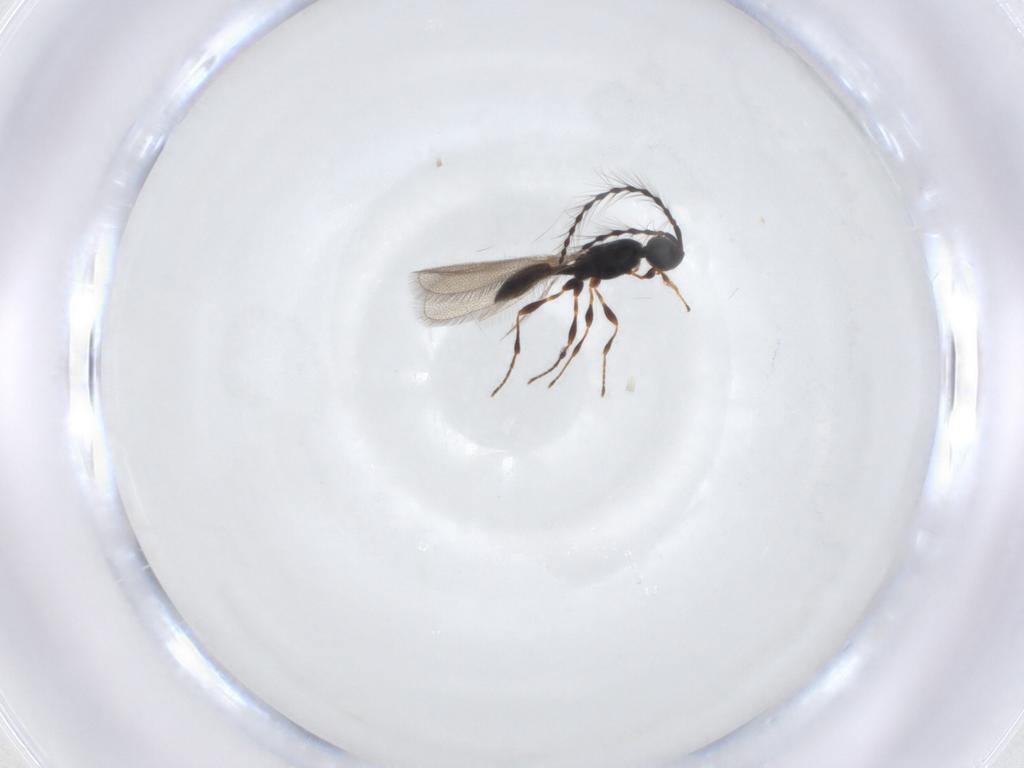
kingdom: Animalia
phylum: Arthropoda
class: Insecta
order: Hymenoptera
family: Diapriidae
